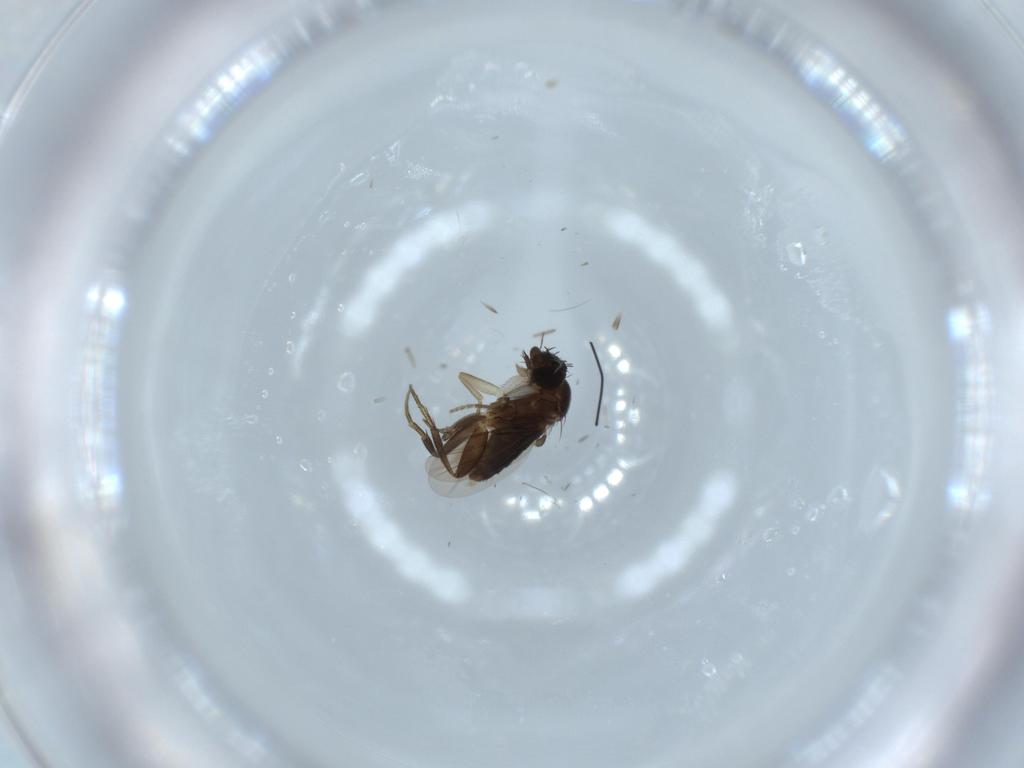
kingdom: Animalia
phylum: Arthropoda
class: Insecta
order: Diptera
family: Phoridae
